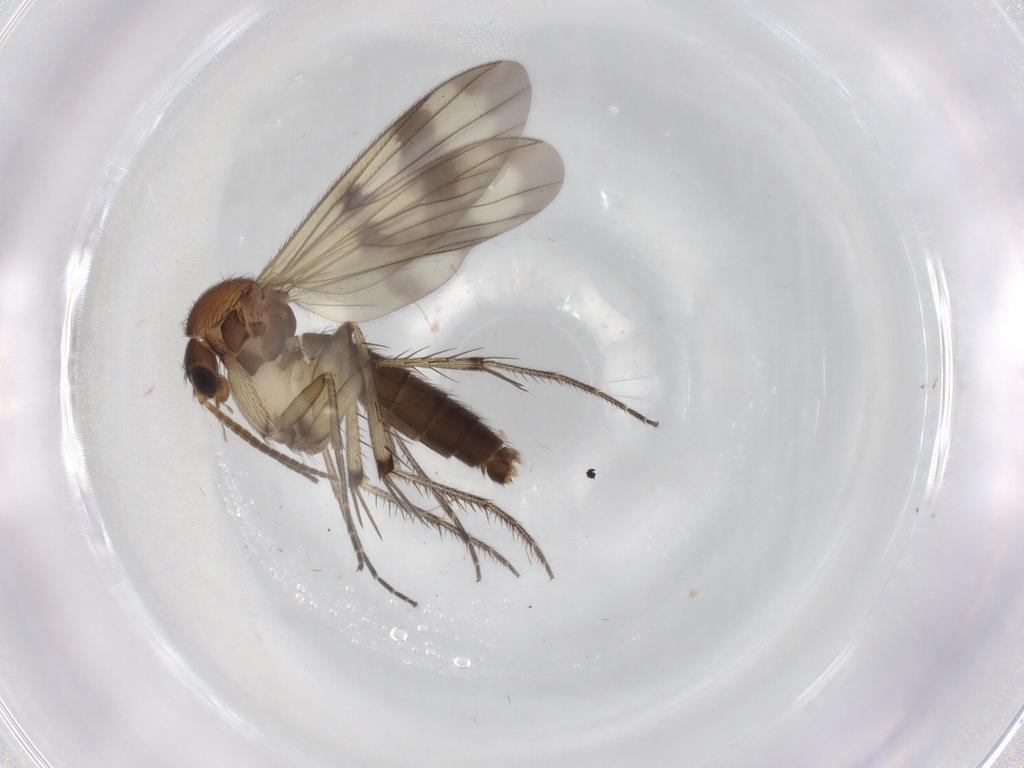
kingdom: Animalia
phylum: Arthropoda
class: Insecta
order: Diptera
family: Mycetophilidae
